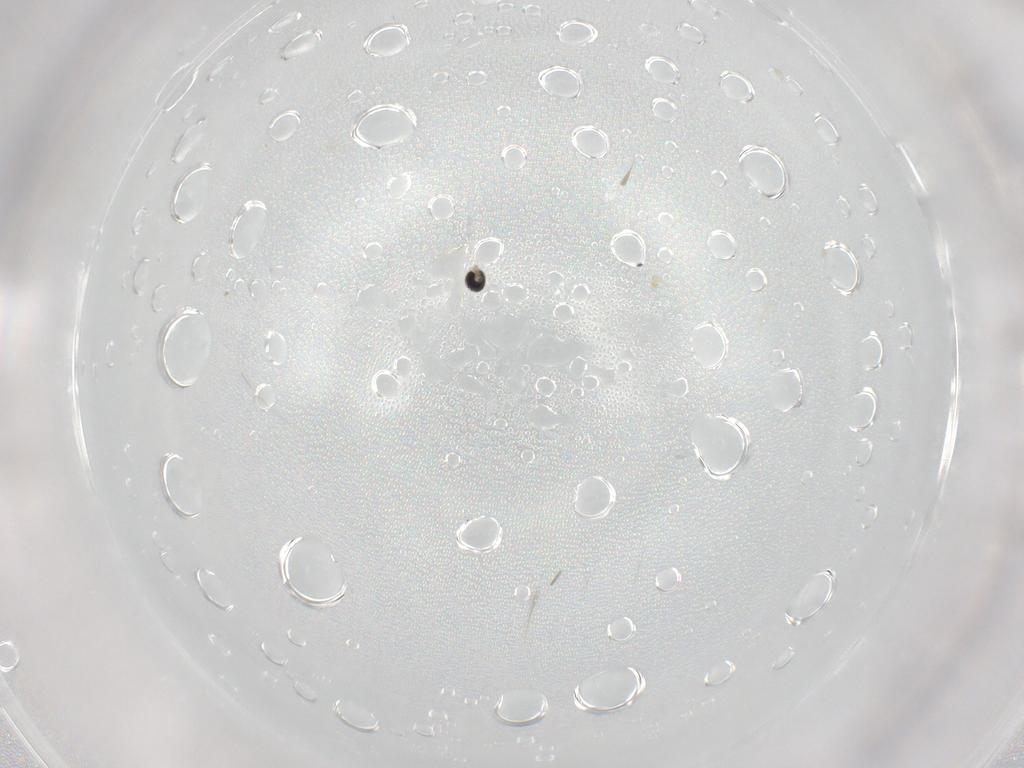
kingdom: Animalia
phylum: Arthropoda
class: Insecta
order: Diptera
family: Cecidomyiidae
